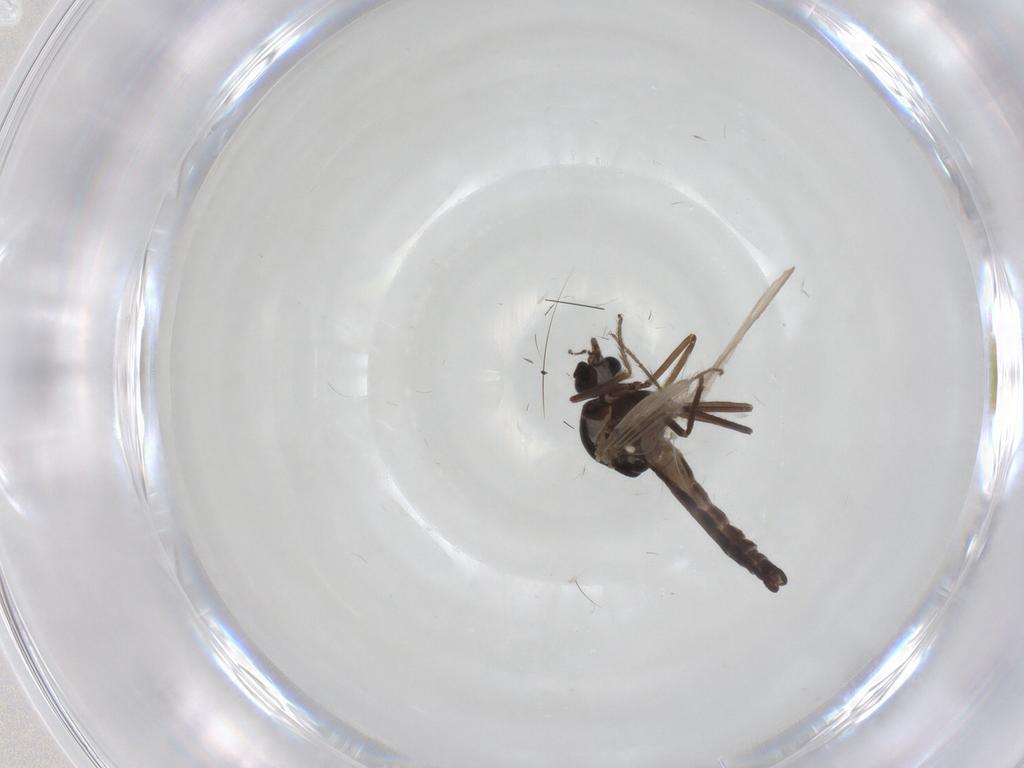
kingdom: Animalia
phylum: Arthropoda
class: Insecta
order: Diptera
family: Ceratopogonidae
